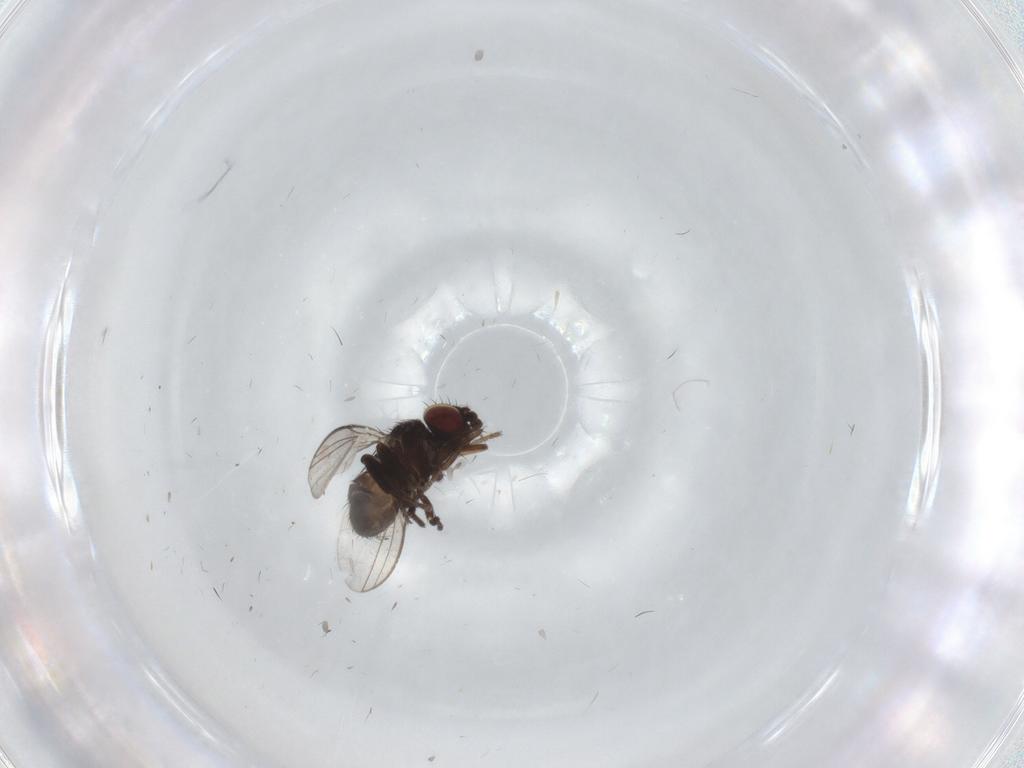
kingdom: Animalia
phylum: Arthropoda
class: Insecta
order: Diptera
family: Milichiidae
